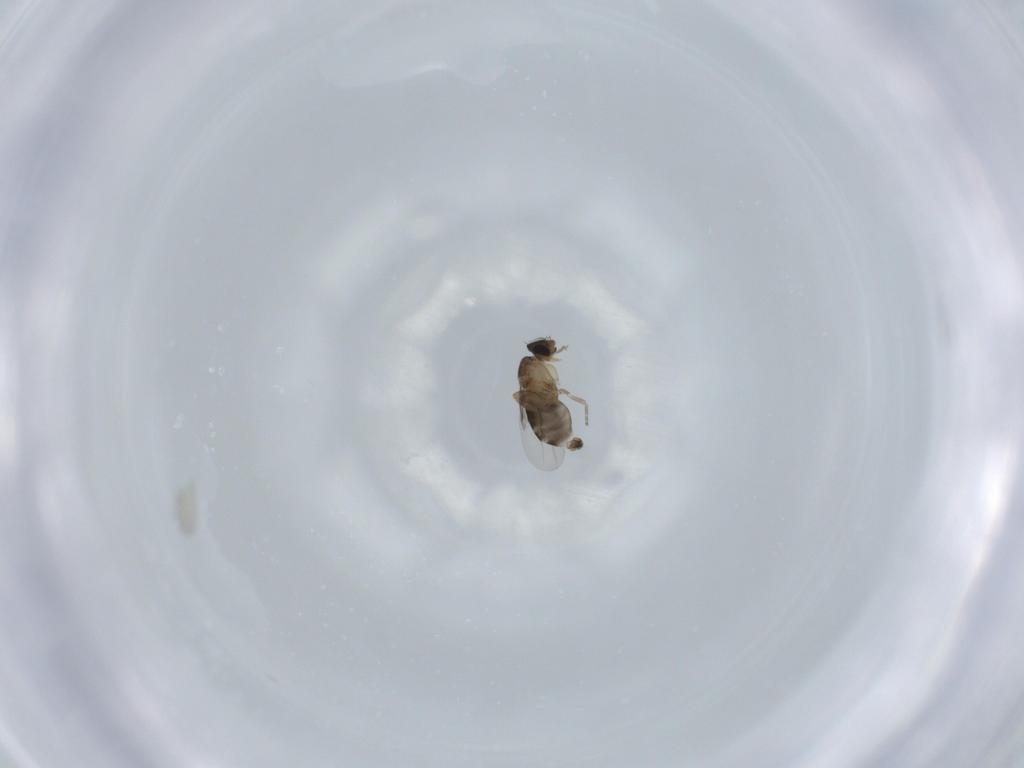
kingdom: Animalia
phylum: Arthropoda
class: Insecta
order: Diptera
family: Phoridae
